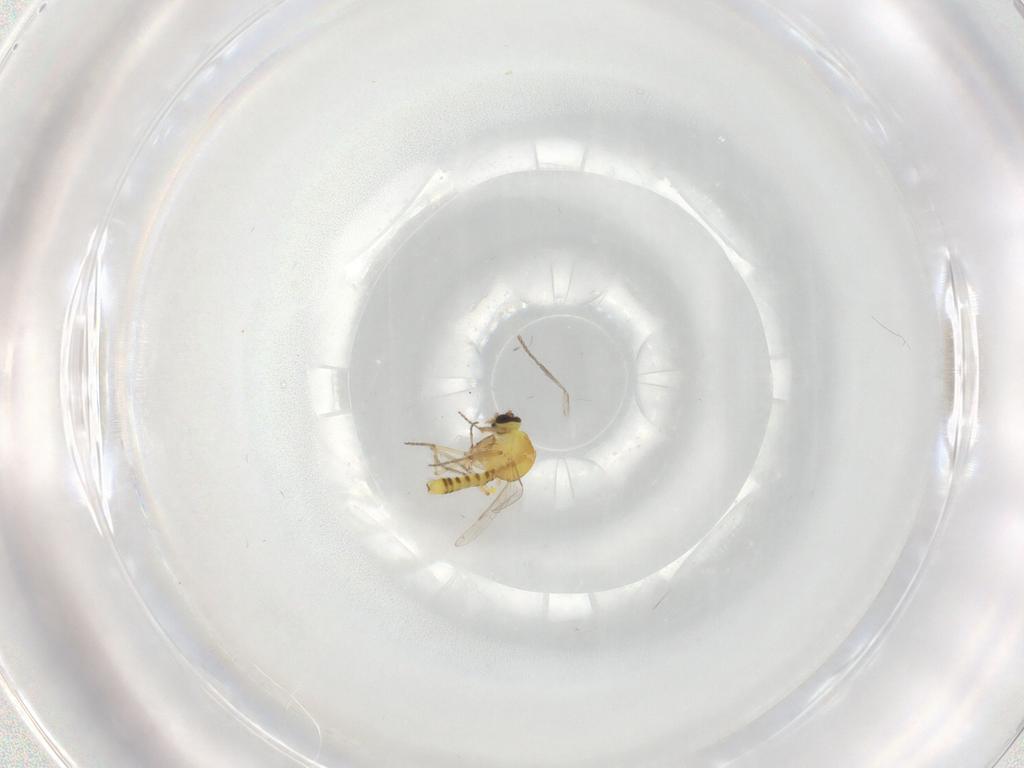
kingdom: Animalia
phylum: Arthropoda
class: Insecta
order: Diptera
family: Ceratopogonidae
